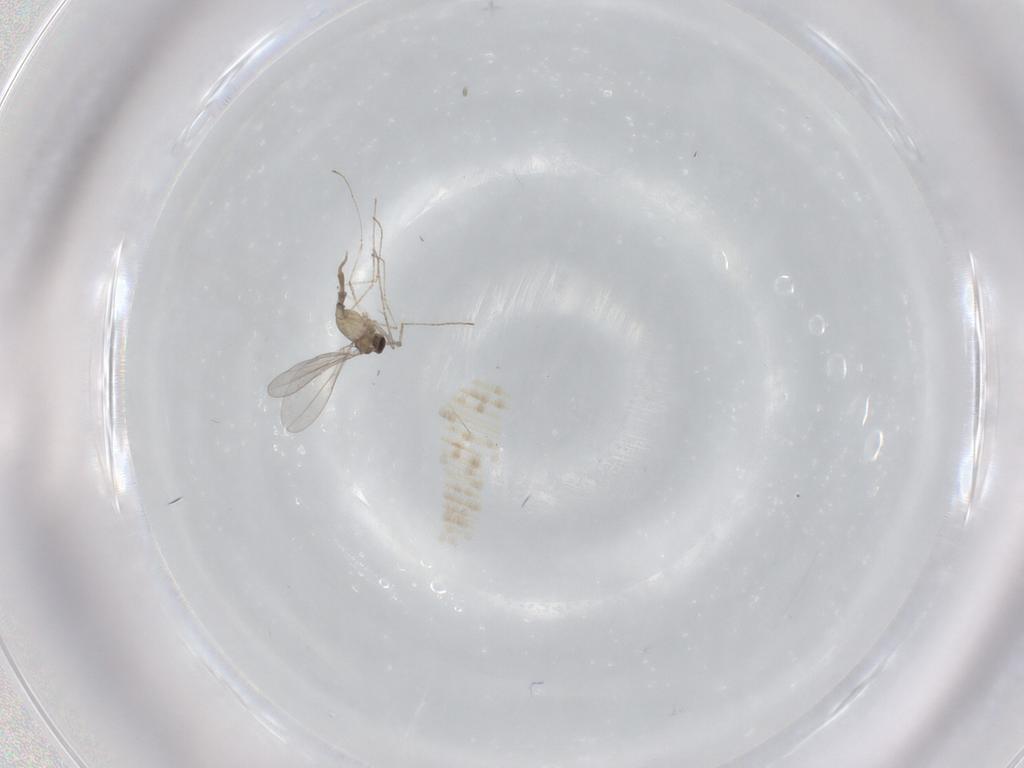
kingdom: Animalia
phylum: Arthropoda
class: Insecta
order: Diptera
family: Cecidomyiidae
